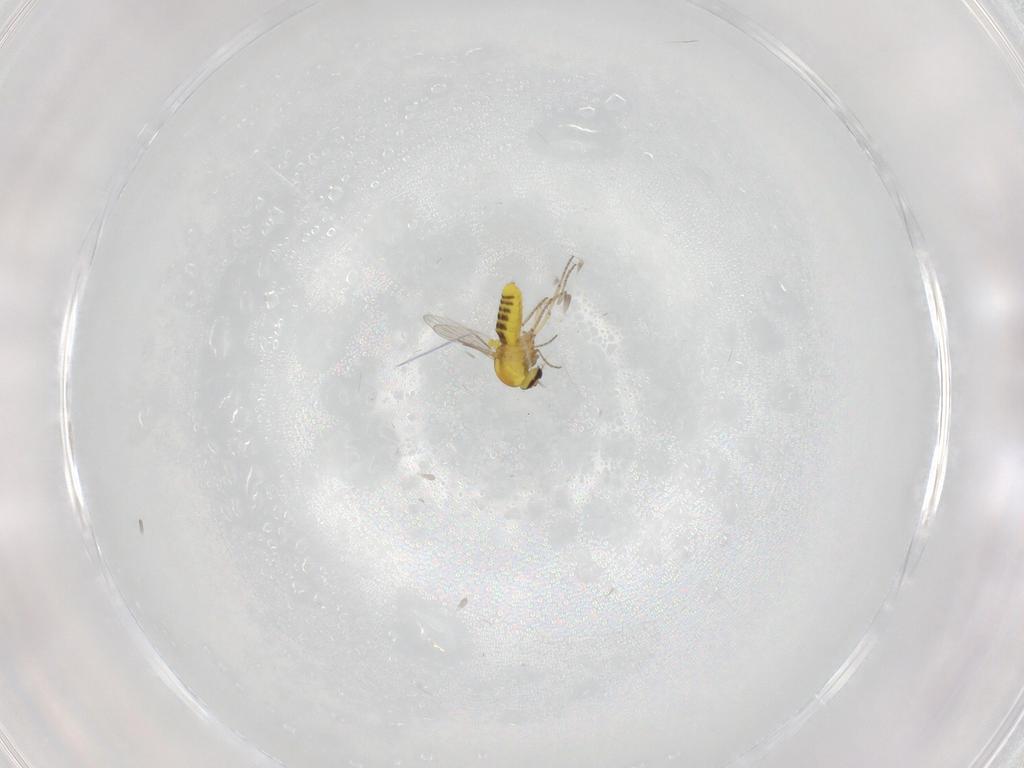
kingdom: Animalia
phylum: Arthropoda
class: Insecta
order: Diptera
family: Ceratopogonidae
